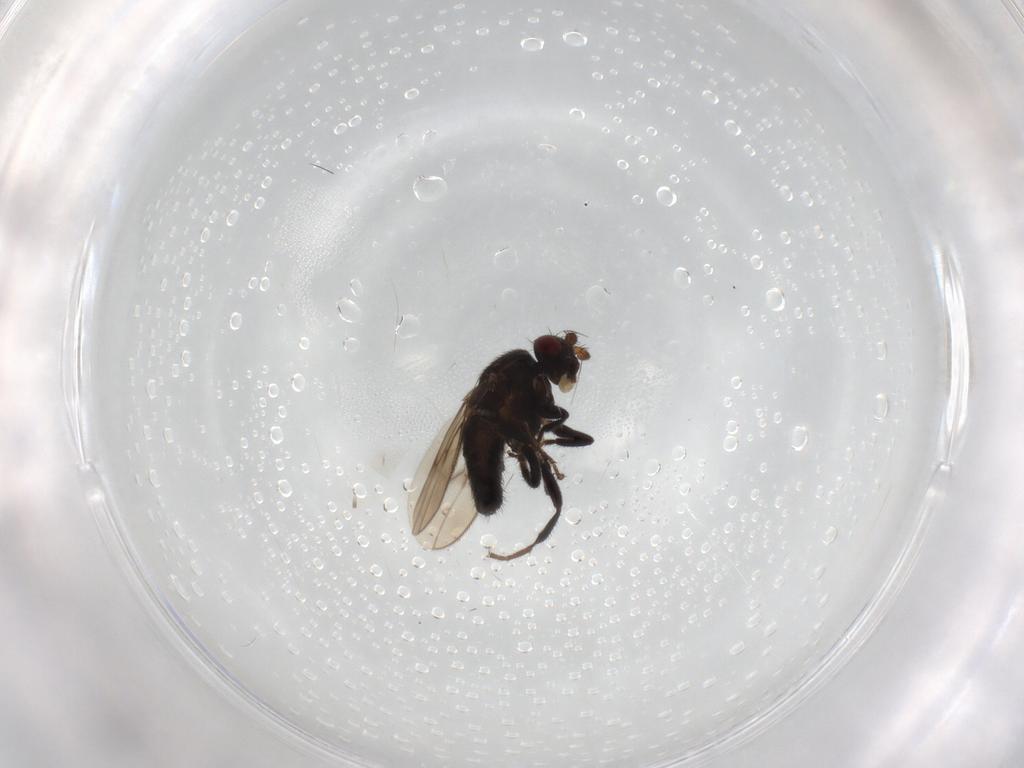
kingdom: Animalia
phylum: Arthropoda
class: Insecta
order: Diptera
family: Sphaeroceridae
